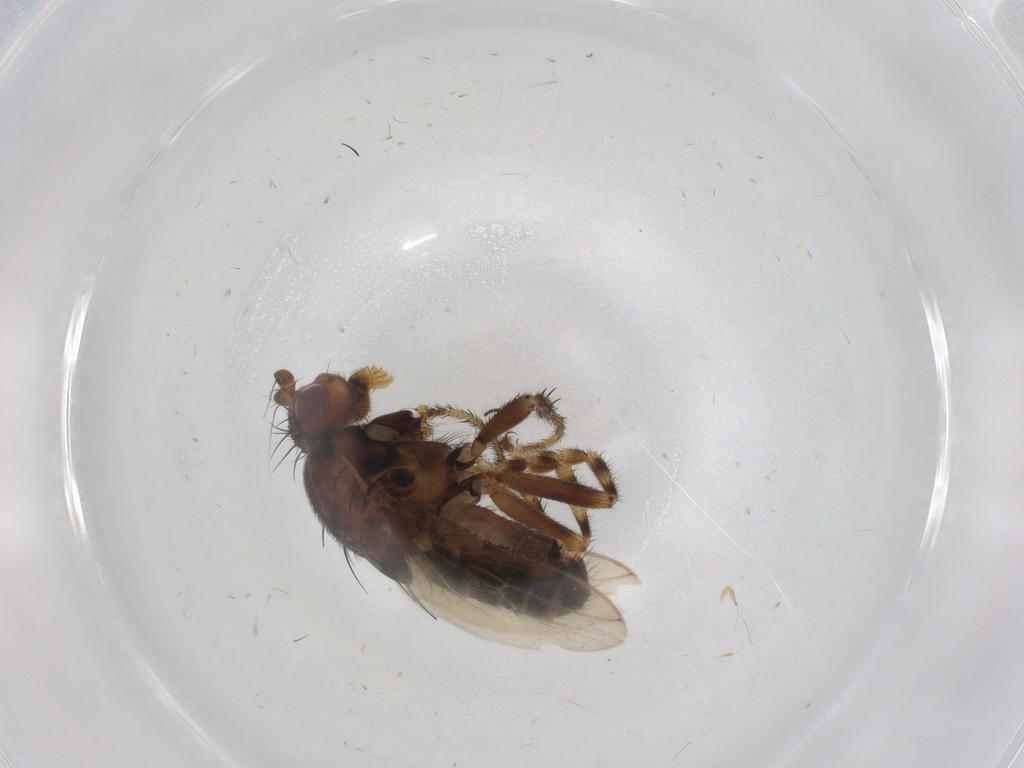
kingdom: Animalia
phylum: Arthropoda
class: Insecta
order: Diptera
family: Sphaeroceridae
